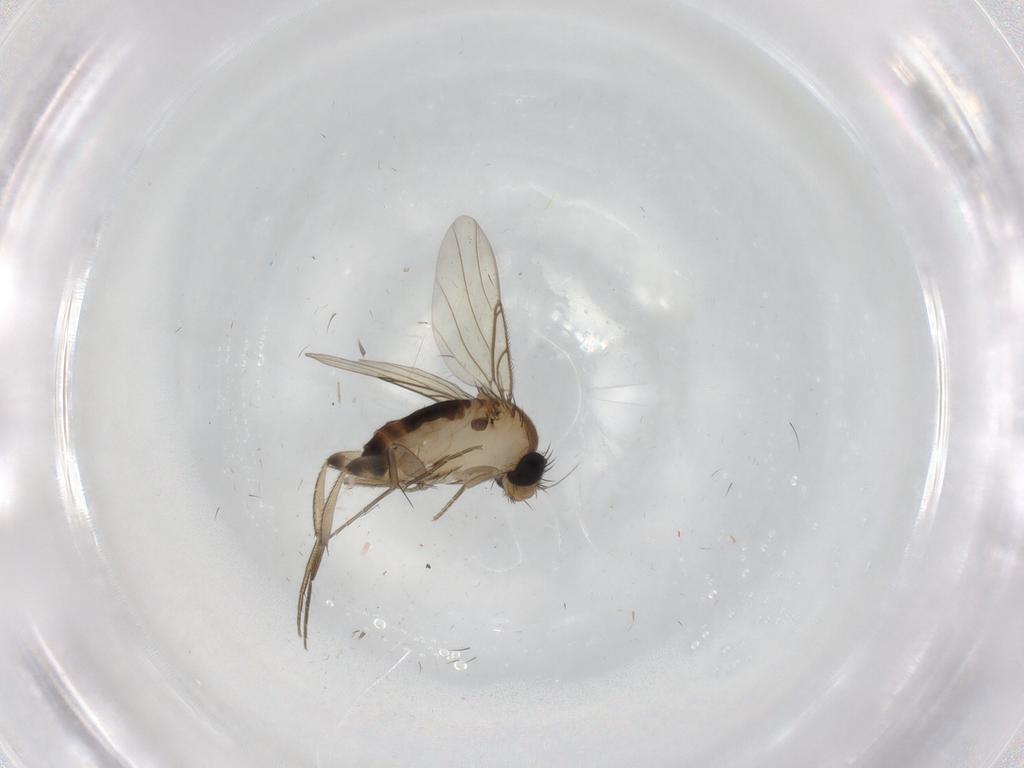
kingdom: Animalia
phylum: Arthropoda
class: Insecta
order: Diptera
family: Phoridae
